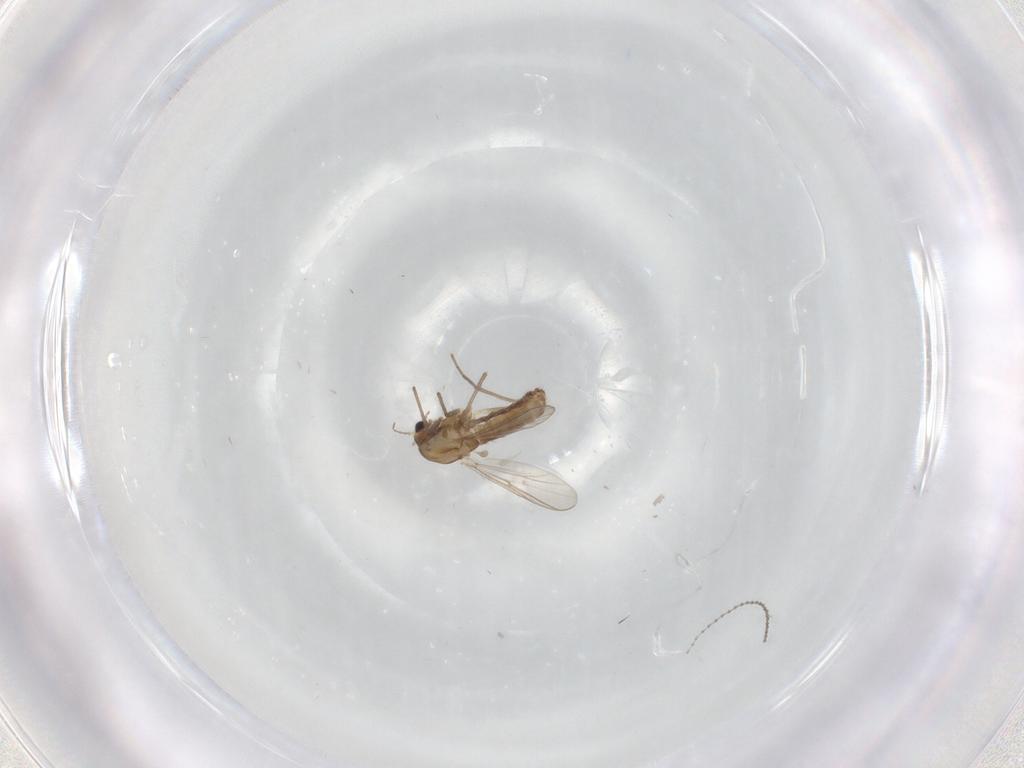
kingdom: Animalia
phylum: Arthropoda
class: Insecta
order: Diptera
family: Chironomidae
